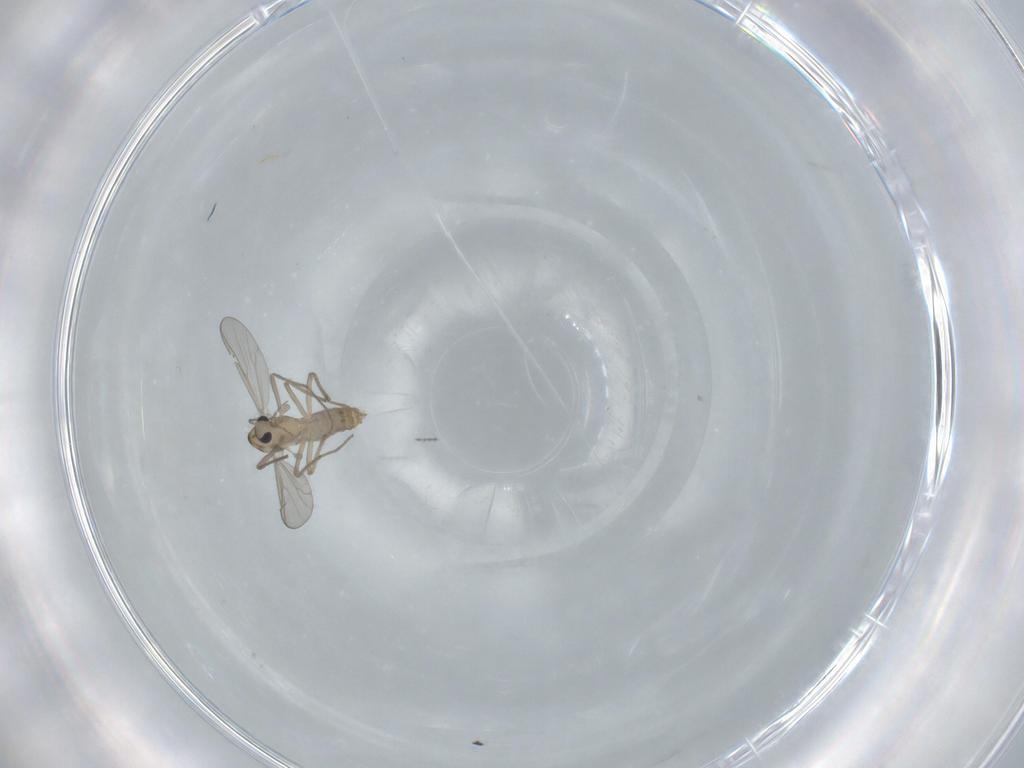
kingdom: Animalia
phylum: Arthropoda
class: Insecta
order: Diptera
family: Chironomidae
